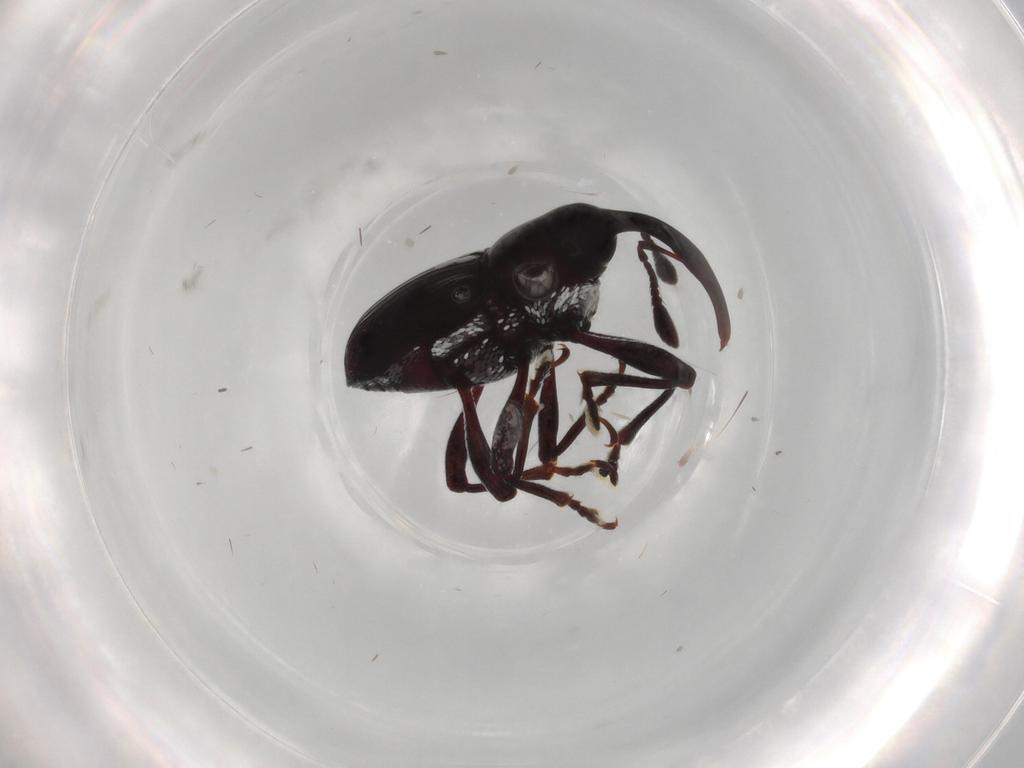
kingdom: Animalia
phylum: Arthropoda
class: Insecta
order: Coleoptera
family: Curculionidae
